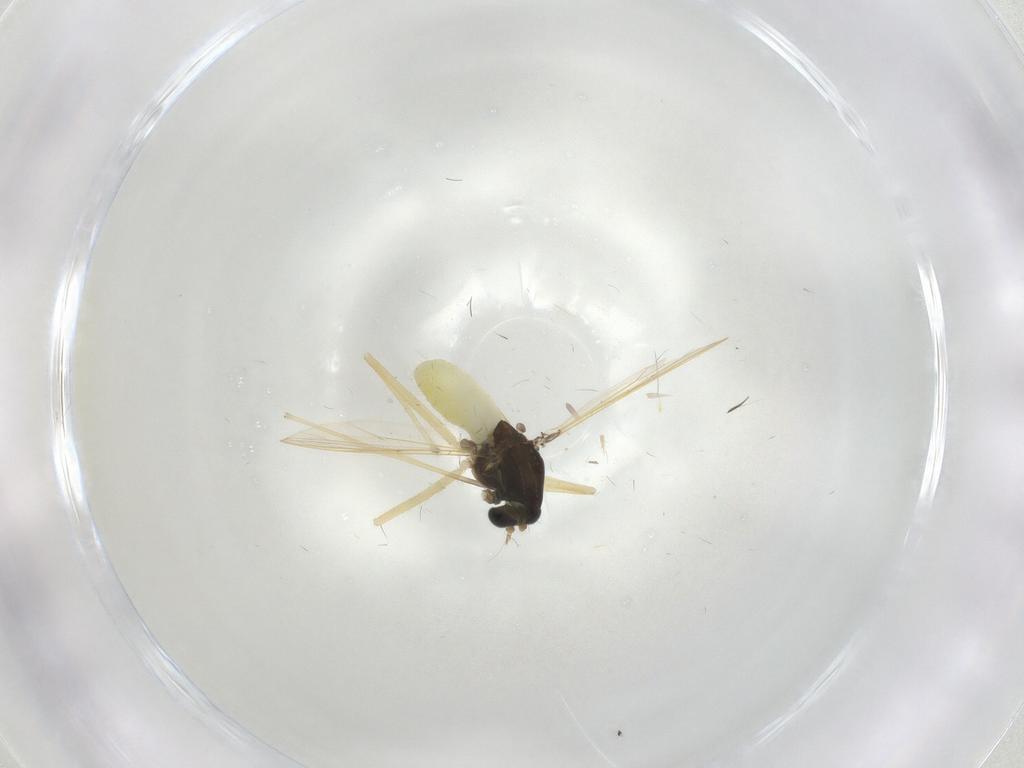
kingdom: Animalia
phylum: Arthropoda
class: Insecta
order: Diptera
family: Chironomidae
